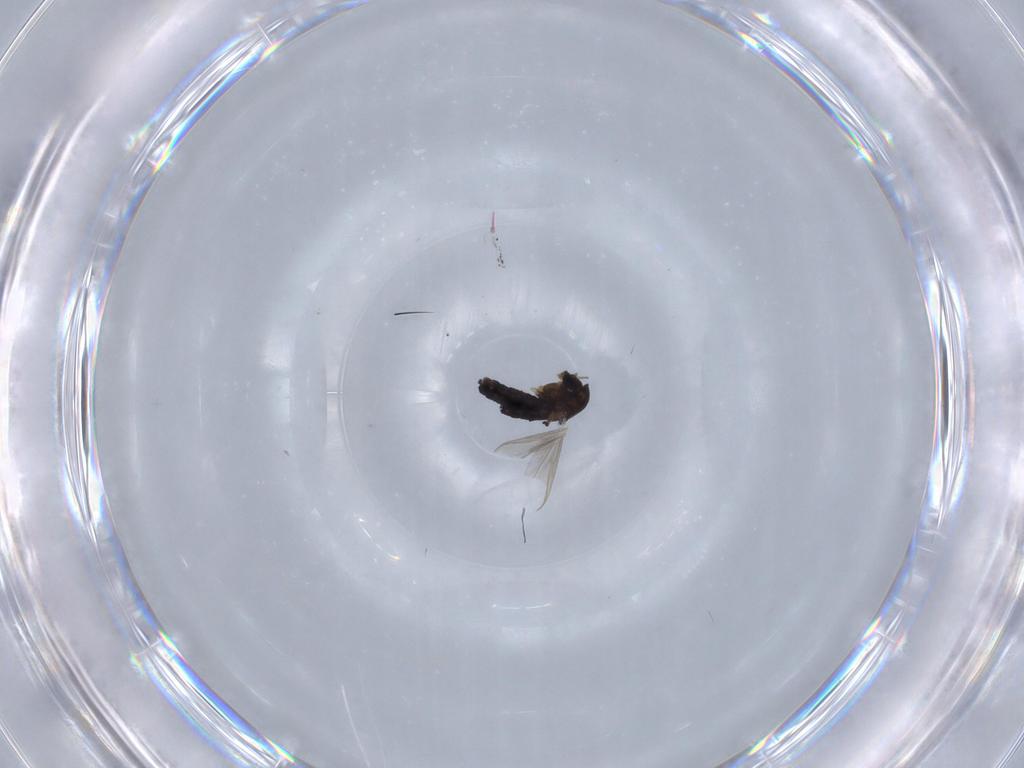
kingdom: Animalia
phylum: Arthropoda
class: Insecta
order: Diptera
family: Chironomidae
